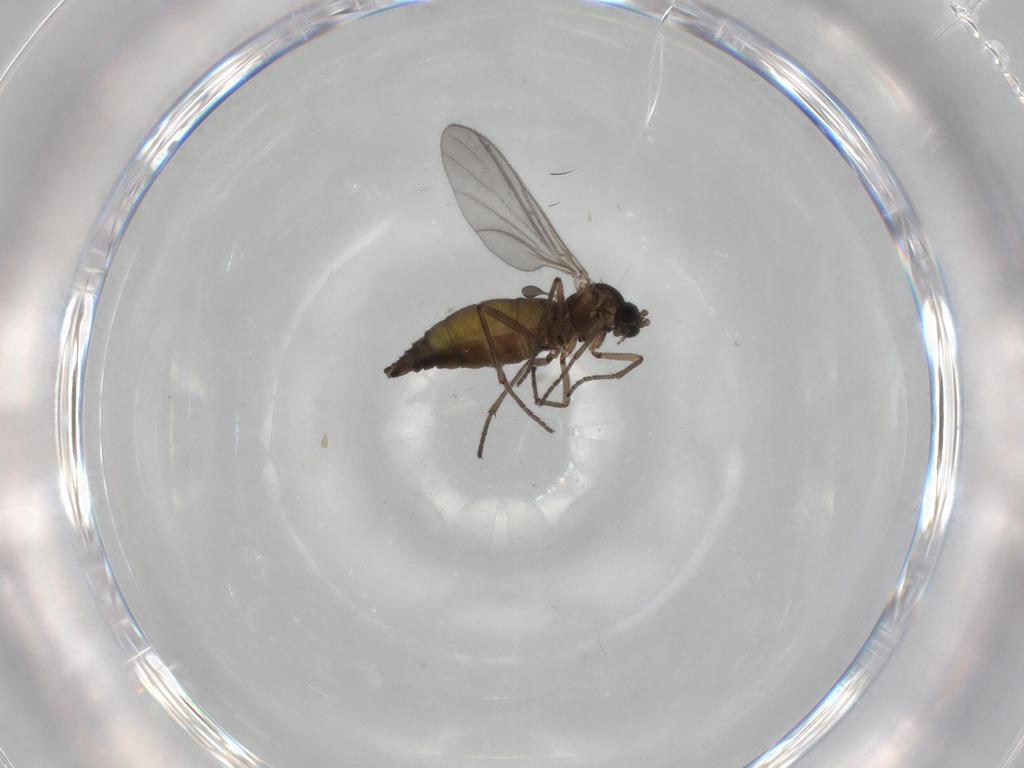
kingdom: Animalia
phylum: Arthropoda
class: Insecta
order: Diptera
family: Sciaridae
